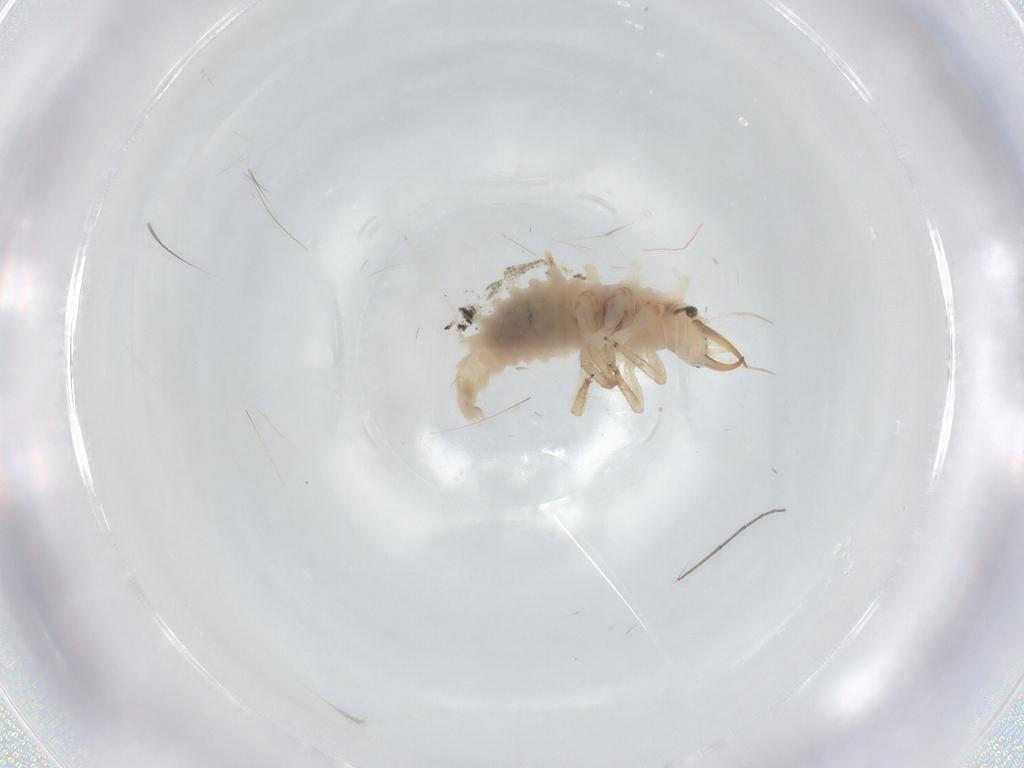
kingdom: Animalia
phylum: Arthropoda
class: Insecta
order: Neuroptera
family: Chrysopidae
